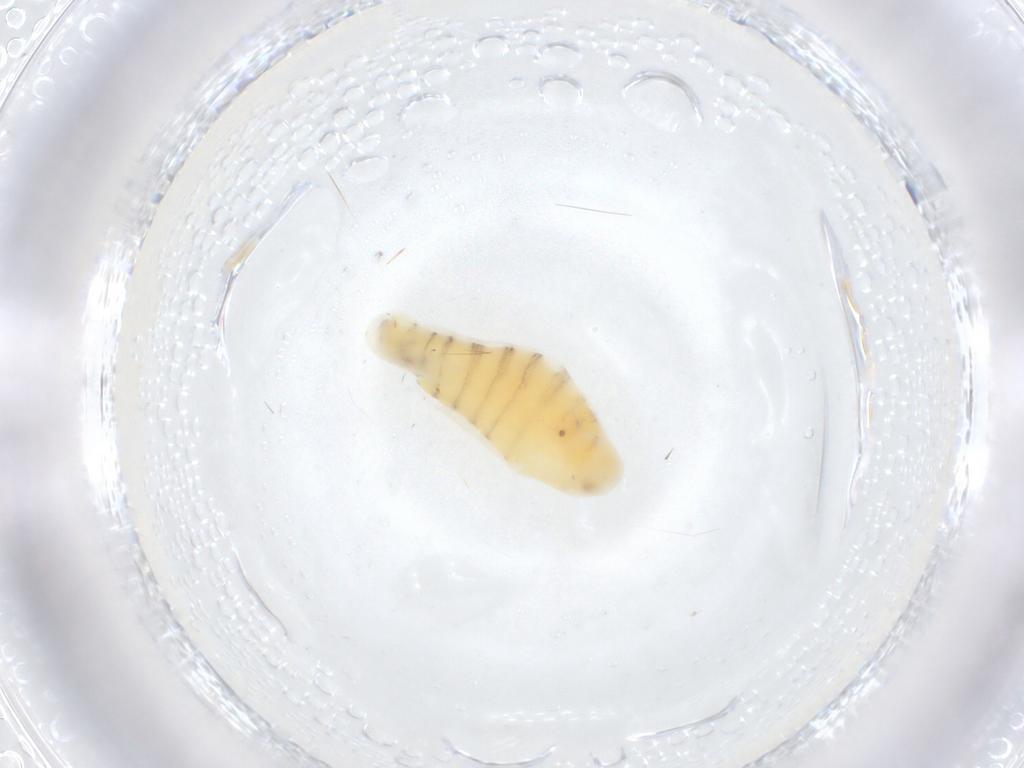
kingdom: Animalia
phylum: Arthropoda
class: Insecta
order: Diptera
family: Muscidae
